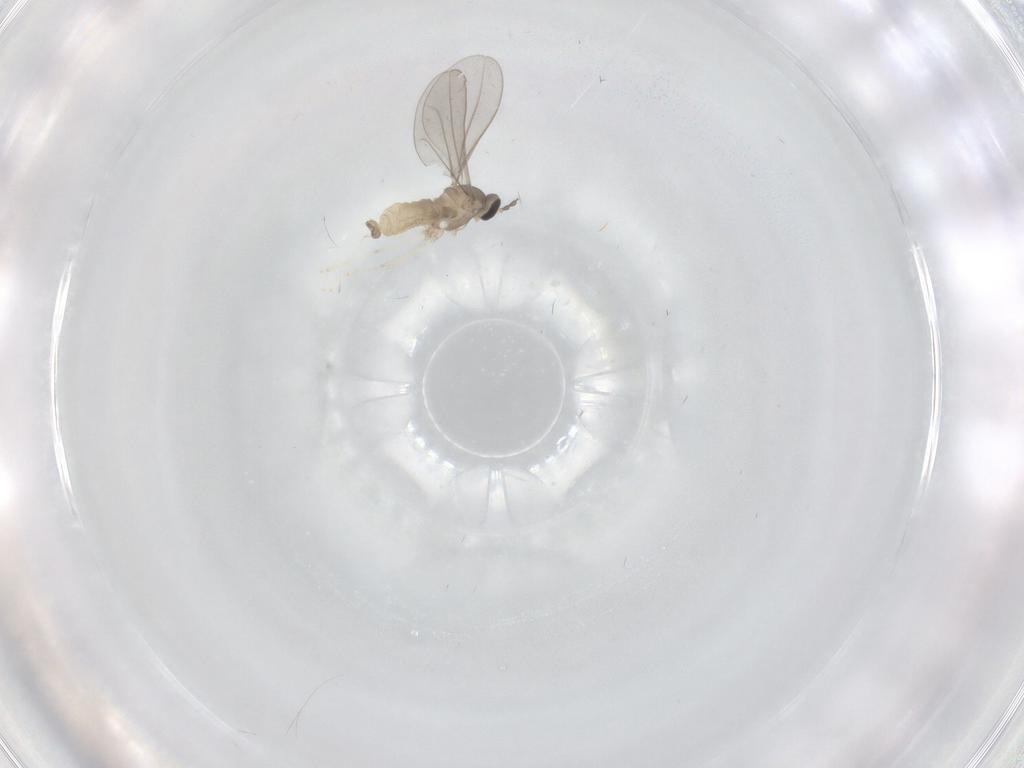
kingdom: Animalia
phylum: Arthropoda
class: Insecta
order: Diptera
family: Cecidomyiidae
